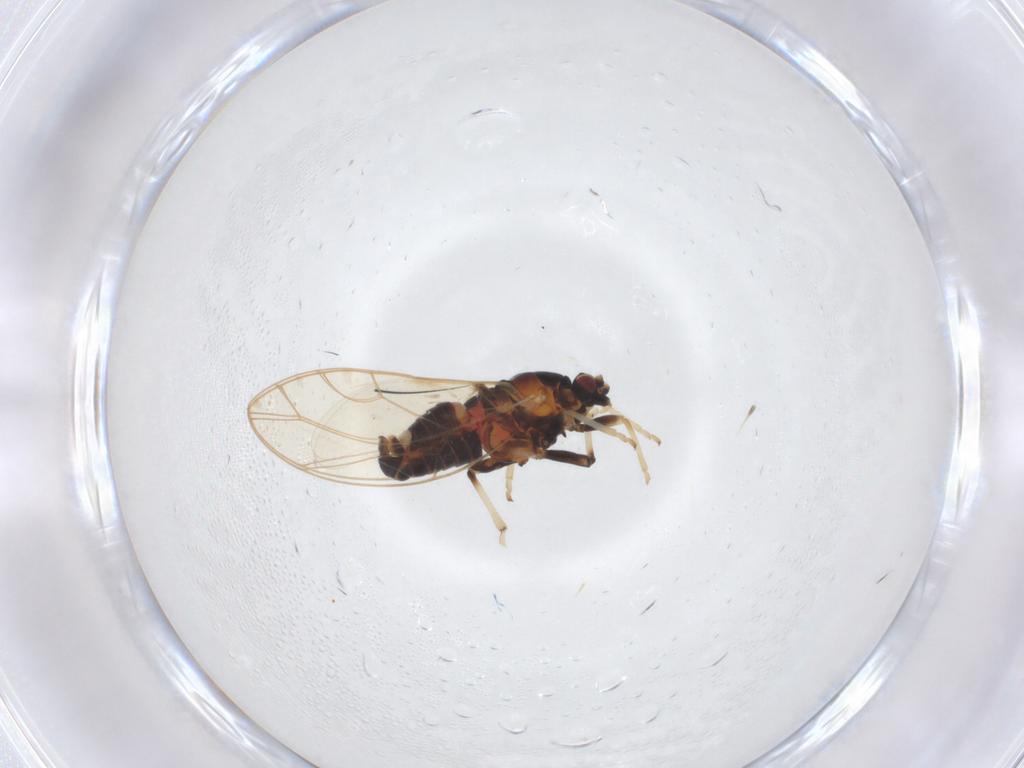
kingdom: Animalia
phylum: Arthropoda
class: Insecta
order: Hemiptera
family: Triozidae
